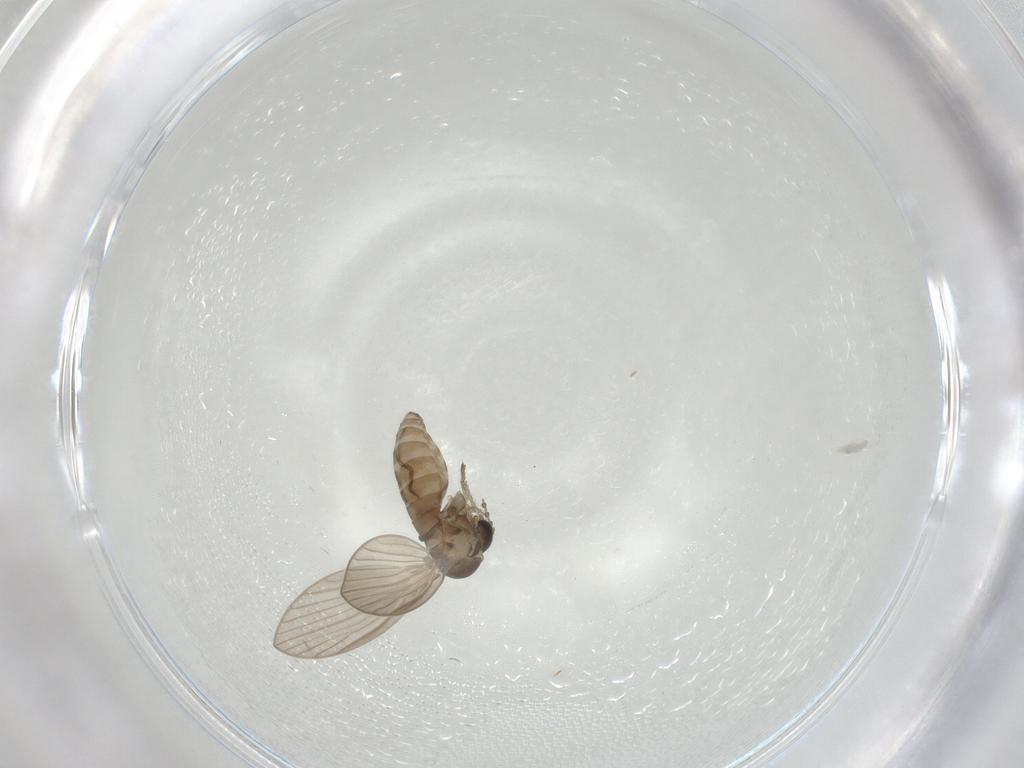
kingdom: Animalia
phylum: Arthropoda
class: Insecta
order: Diptera
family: Psychodidae
